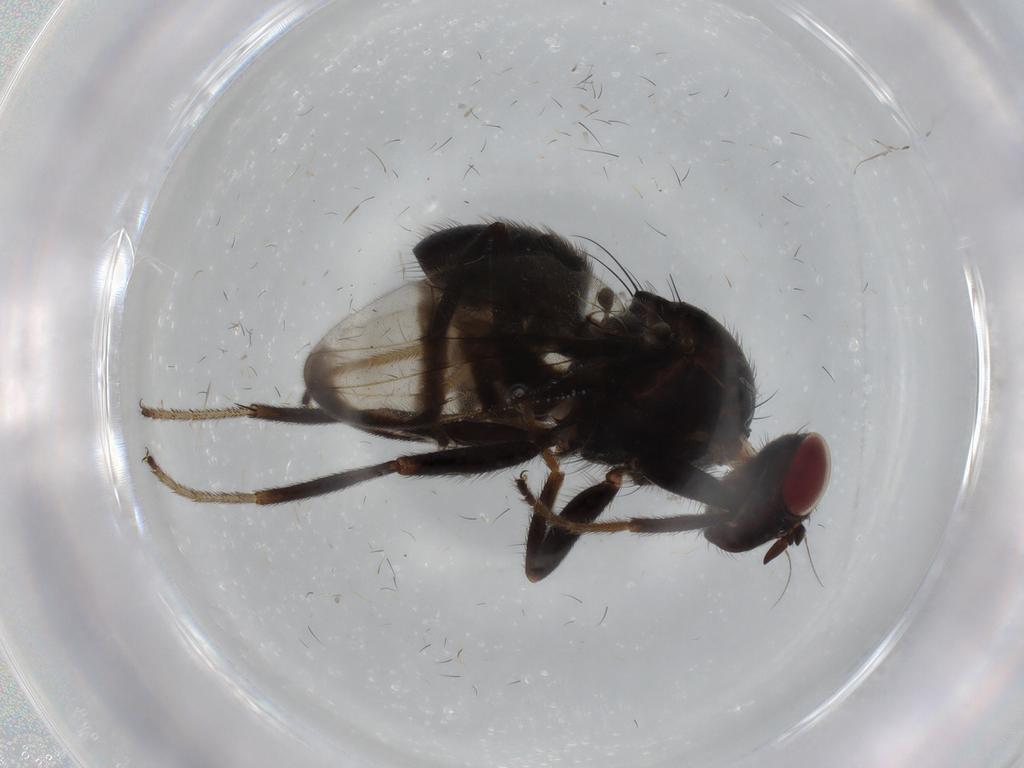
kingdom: Animalia
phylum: Arthropoda
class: Insecta
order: Diptera
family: Platystomatidae
